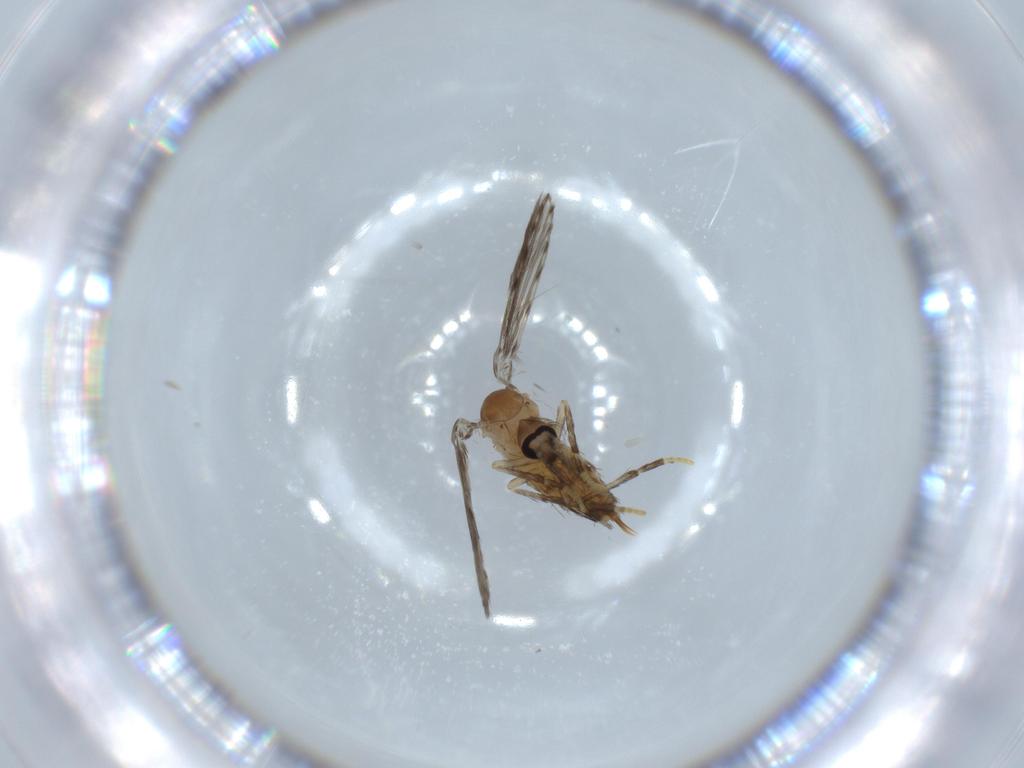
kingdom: Animalia
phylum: Arthropoda
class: Insecta
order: Diptera
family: Psychodidae
